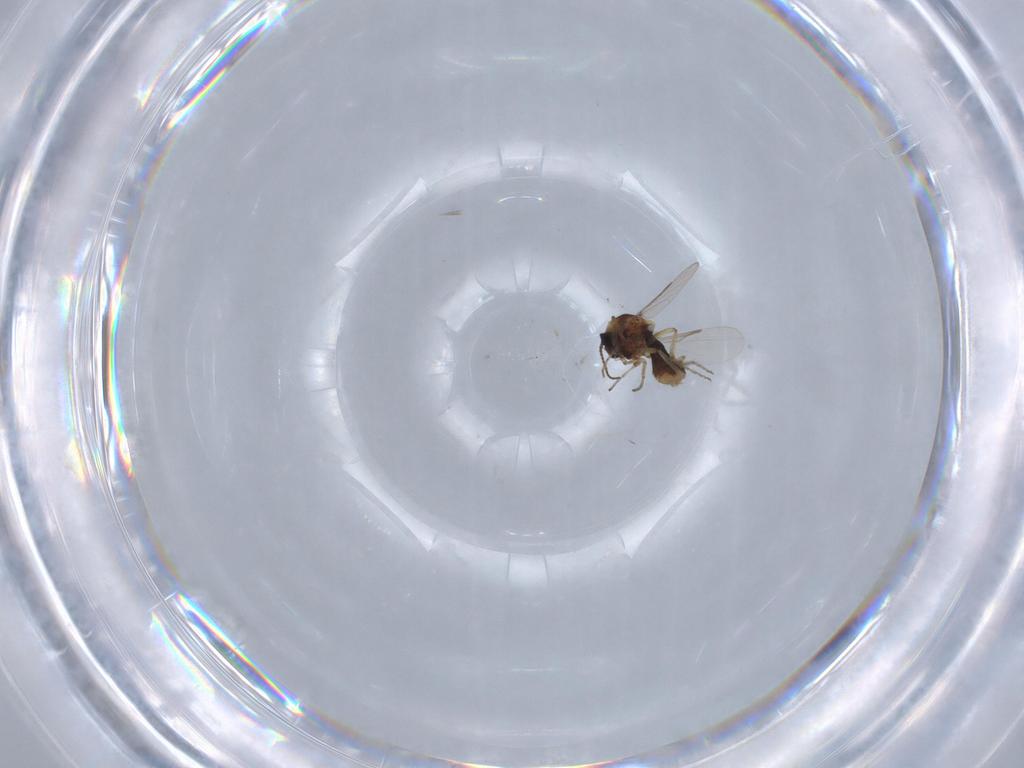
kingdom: Animalia
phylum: Arthropoda
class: Insecta
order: Diptera
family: Ceratopogonidae
